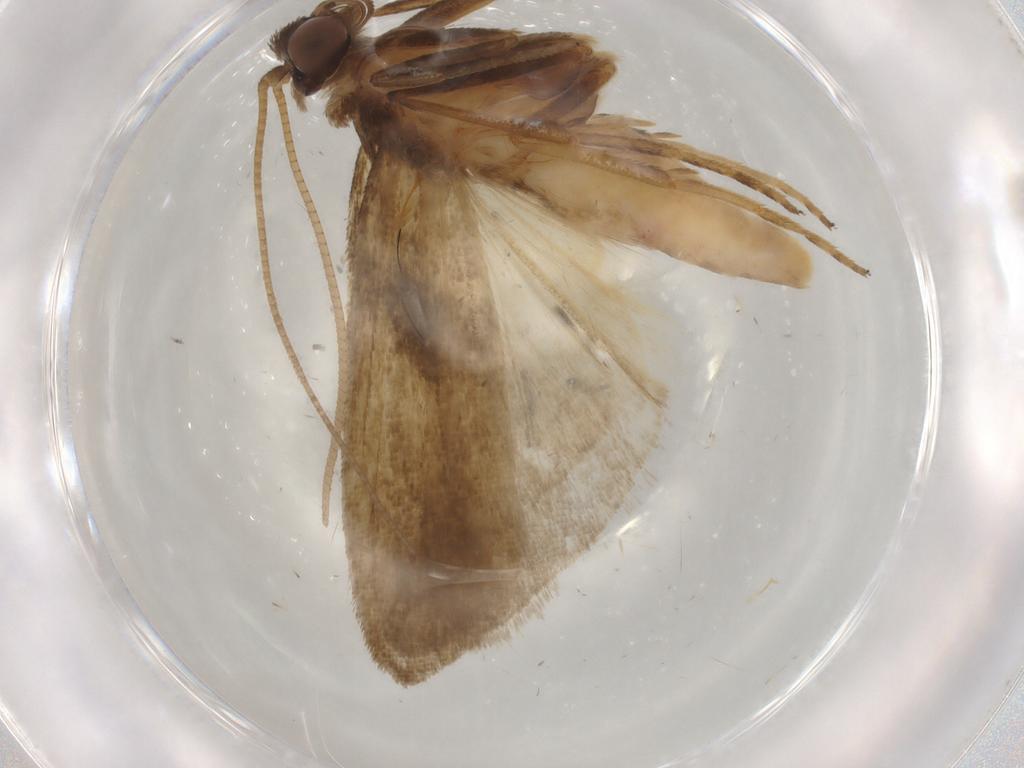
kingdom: Animalia
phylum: Arthropoda
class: Insecta
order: Lepidoptera
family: Noctuidae
